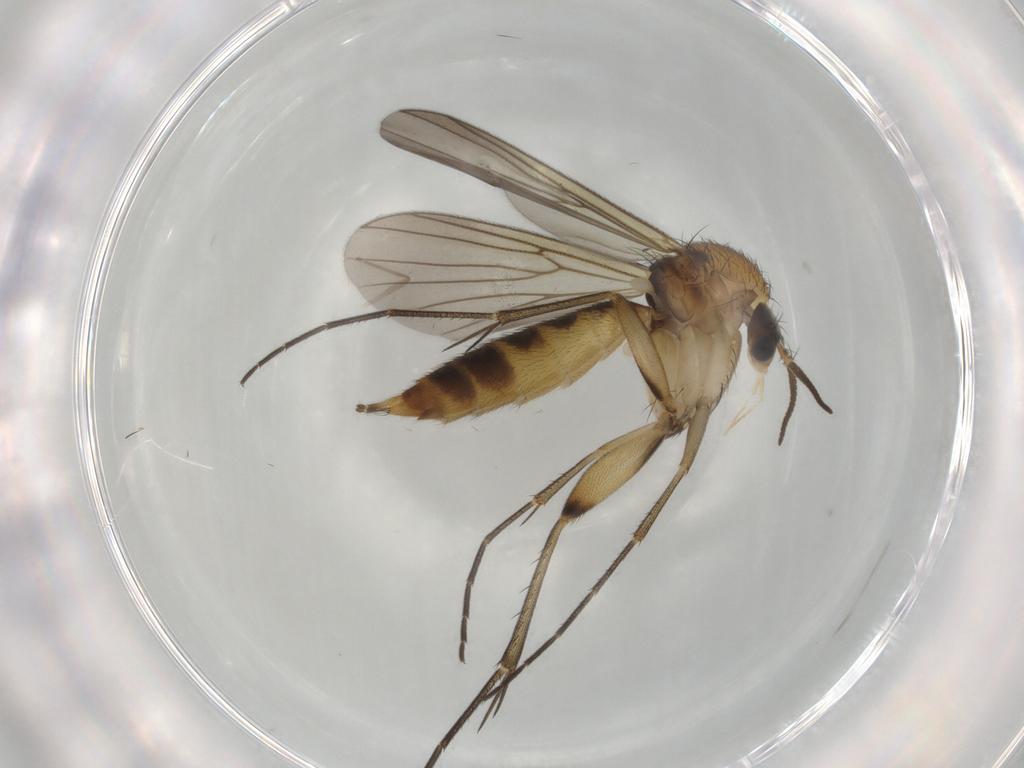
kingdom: Animalia
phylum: Arthropoda
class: Insecta
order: Diptera
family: Mycetophilidae
